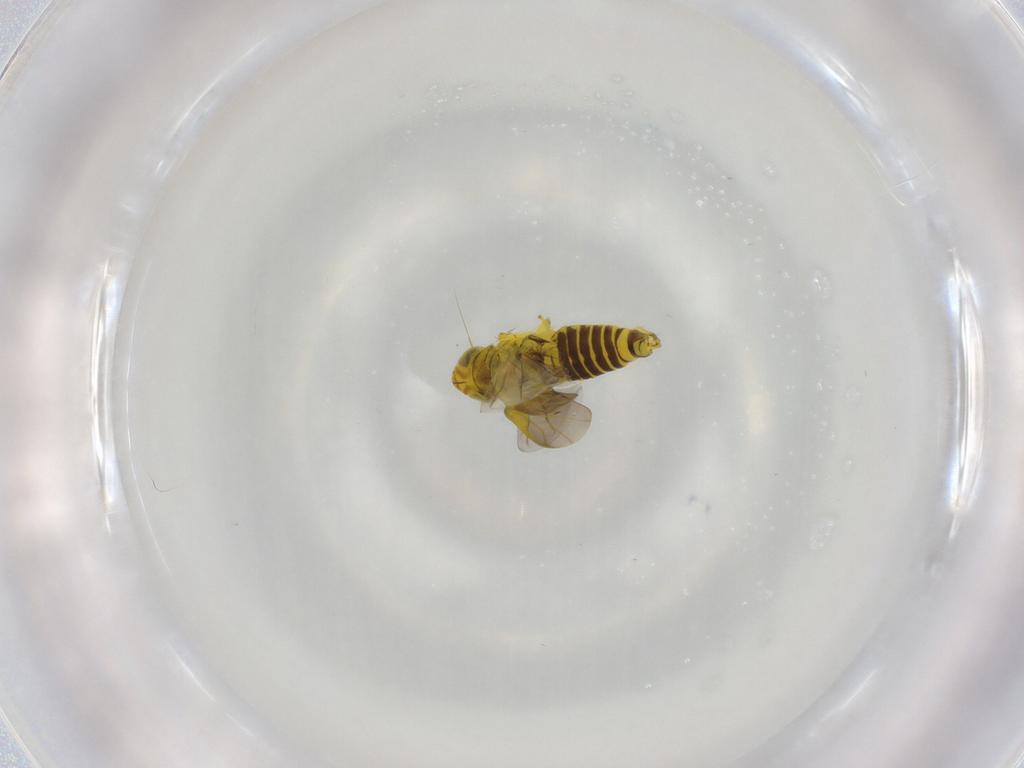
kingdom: Animalia
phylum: Arthropoda
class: Insecta
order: Hemiptera
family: Cicadellidae
